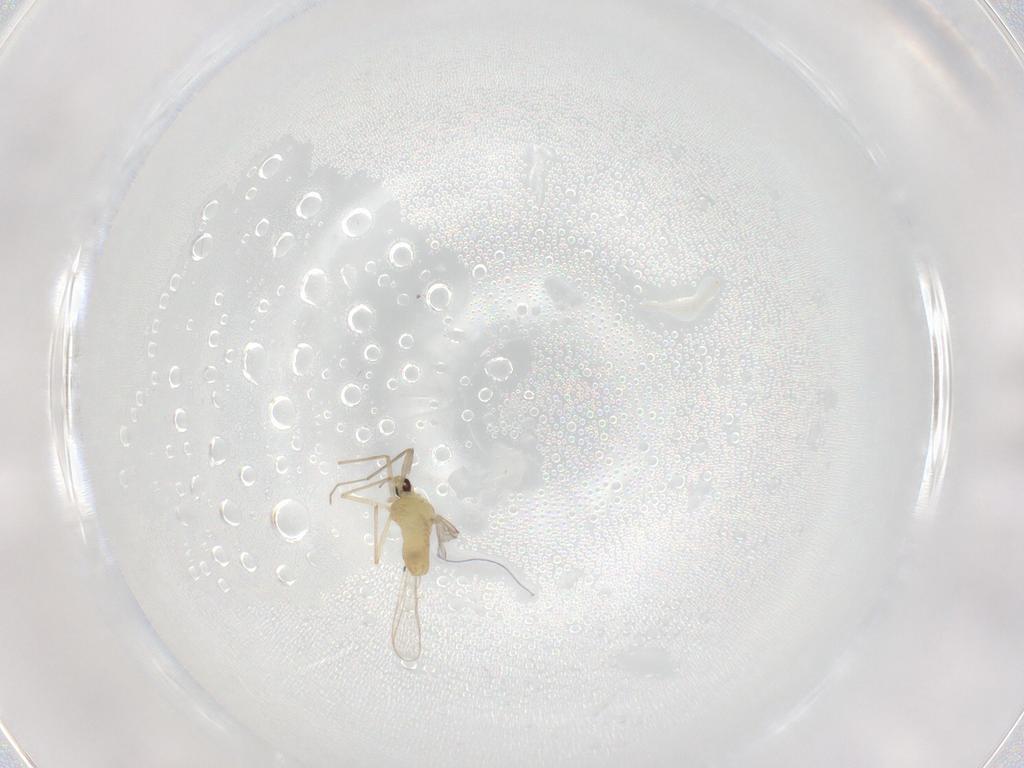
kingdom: Animalia
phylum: Arthropoda
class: Insecta
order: Diptera
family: Chironomidae
